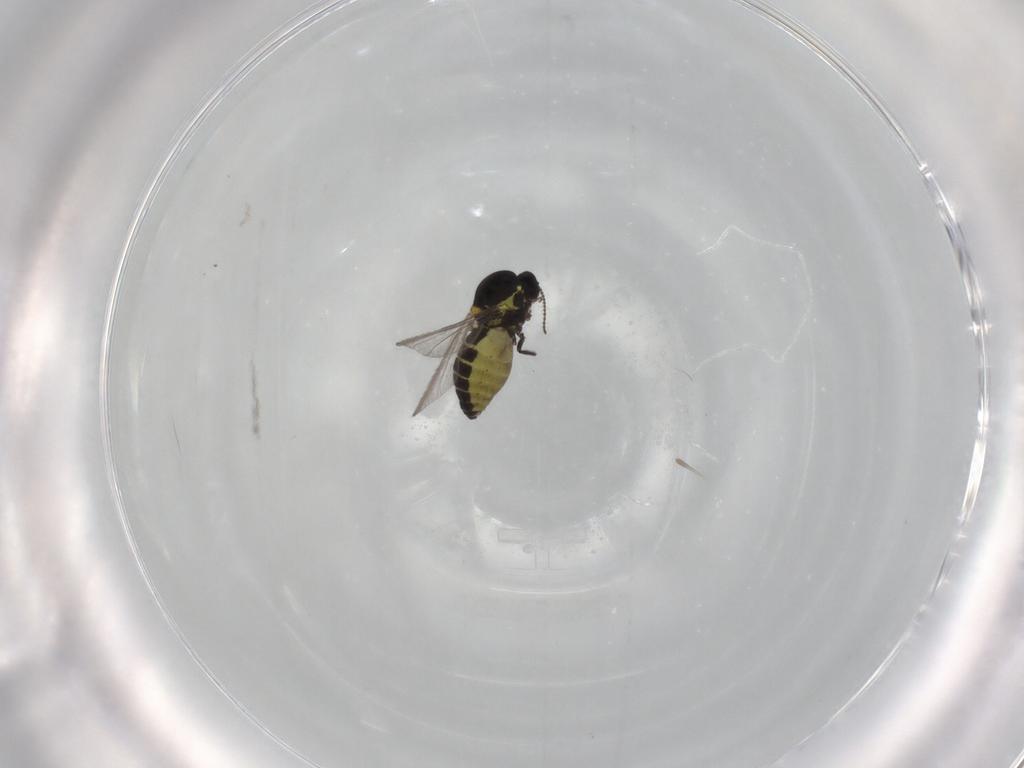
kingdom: Animalia
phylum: Arthropoda
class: Insecta
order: Diptera
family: Ceratopogonidae
